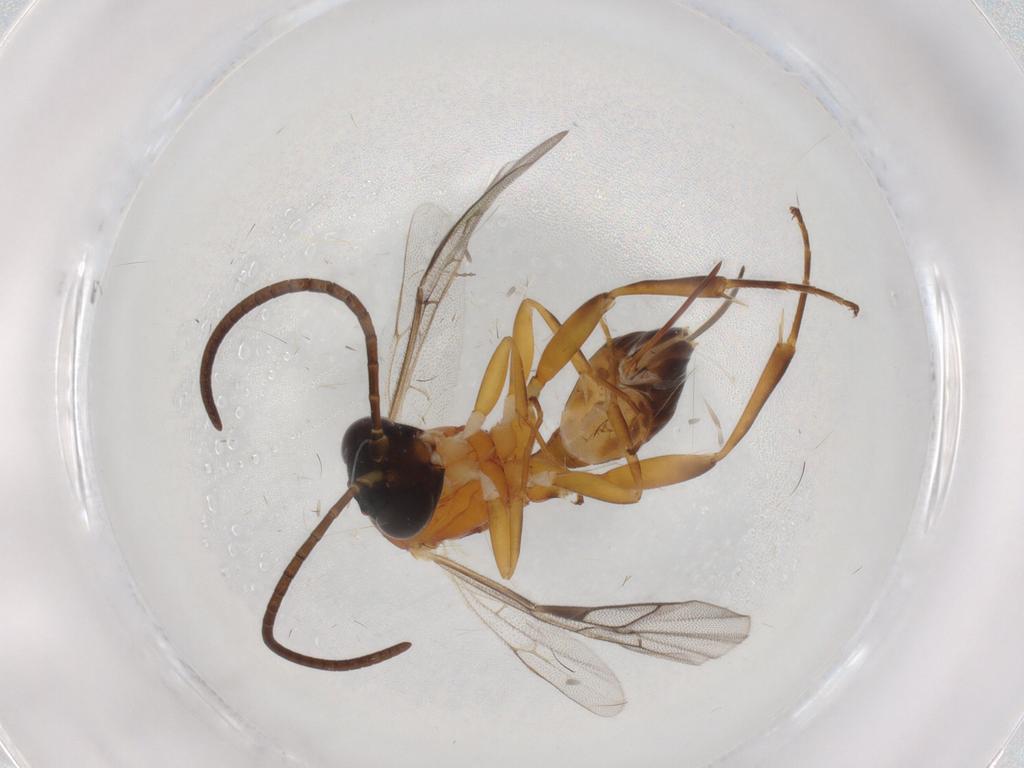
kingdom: Animalia
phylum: Arthropoda
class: Insecta
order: Hymenoptera
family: Ichneumonidae
